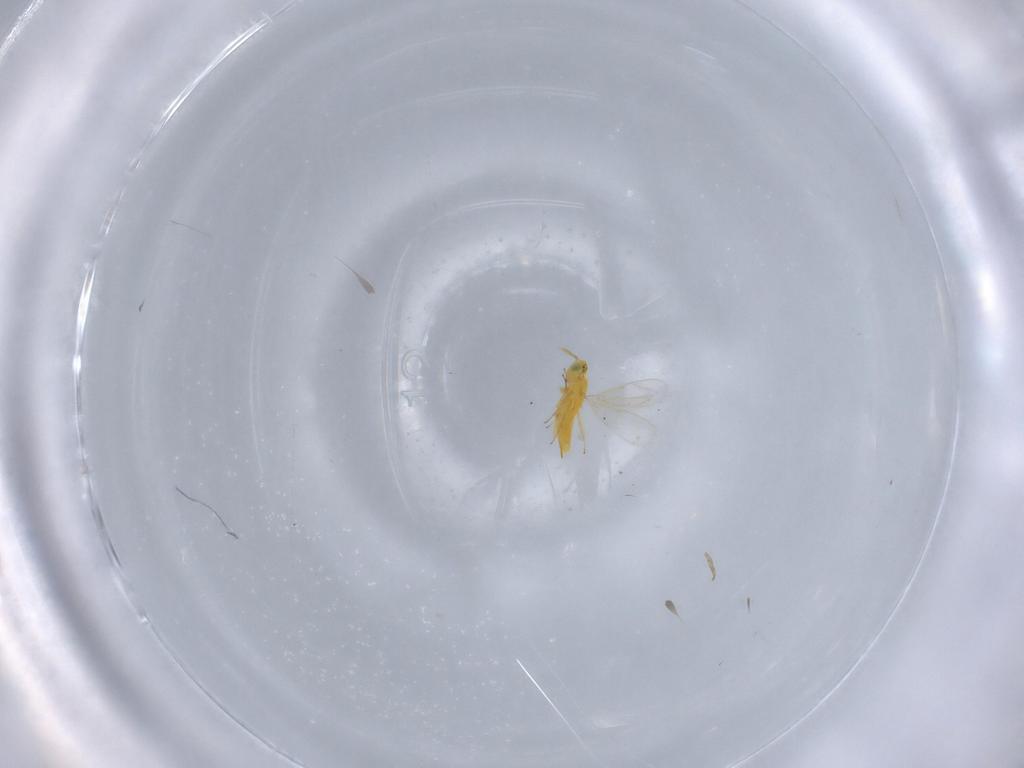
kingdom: Animalia
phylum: Arthropoda
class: Insecta
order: Hymenoptera
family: Aphelinidae
